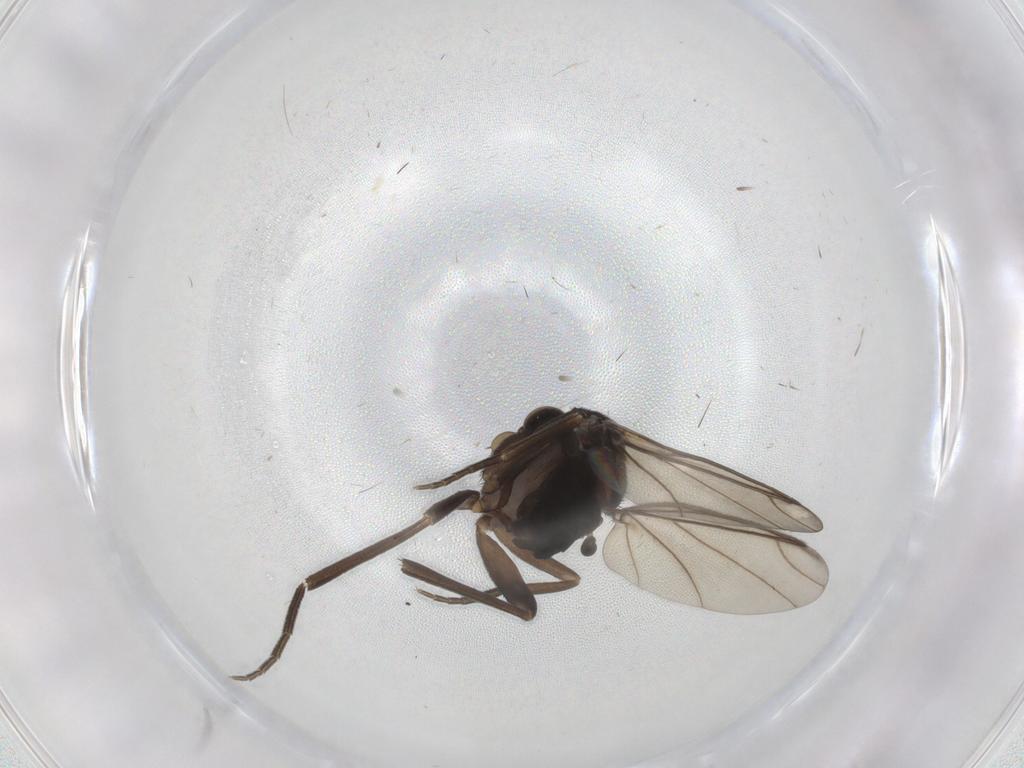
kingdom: Animalia
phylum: Arthropoda
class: Insecta
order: Diptera
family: Phoridae
